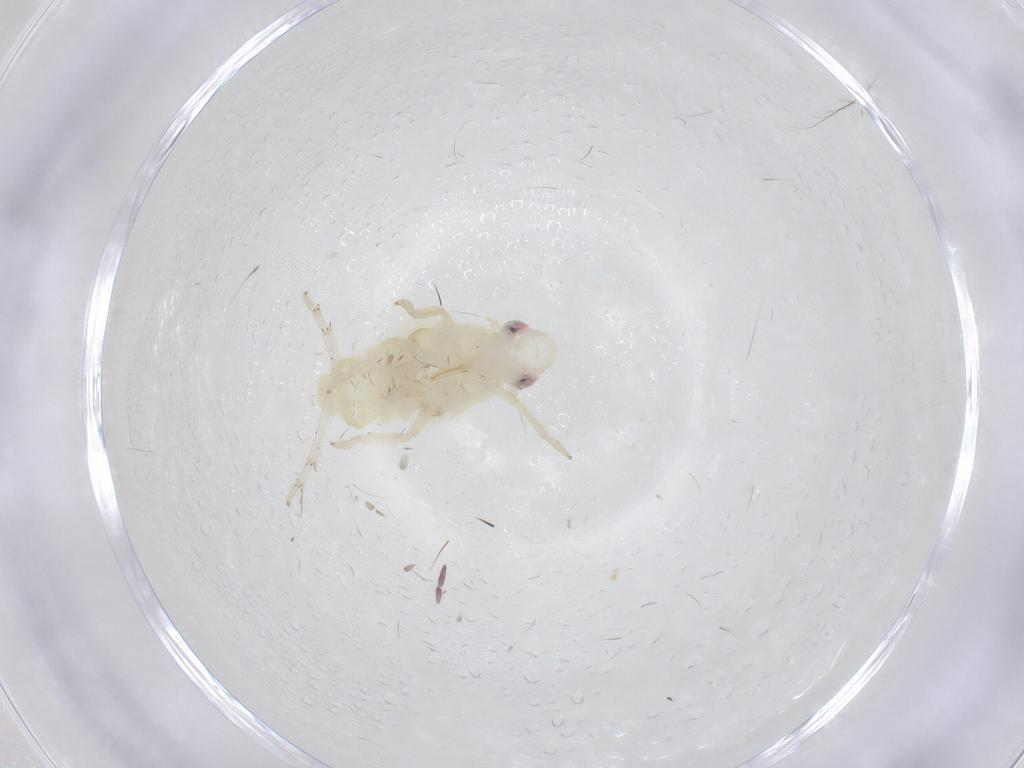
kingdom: Animalia
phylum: Arthropoda
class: Insecta
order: Hemiptera
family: Tropiduchidae
